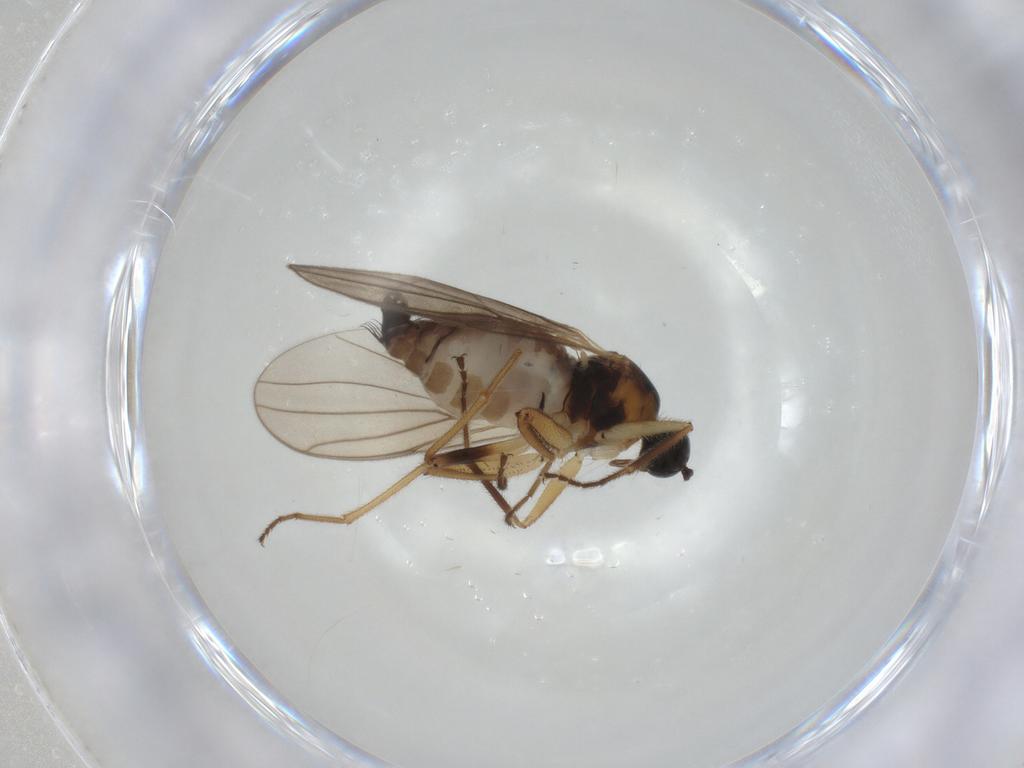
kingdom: Animalia
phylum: Arthropoda
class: Insecta
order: Diptera
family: Hybotidae
